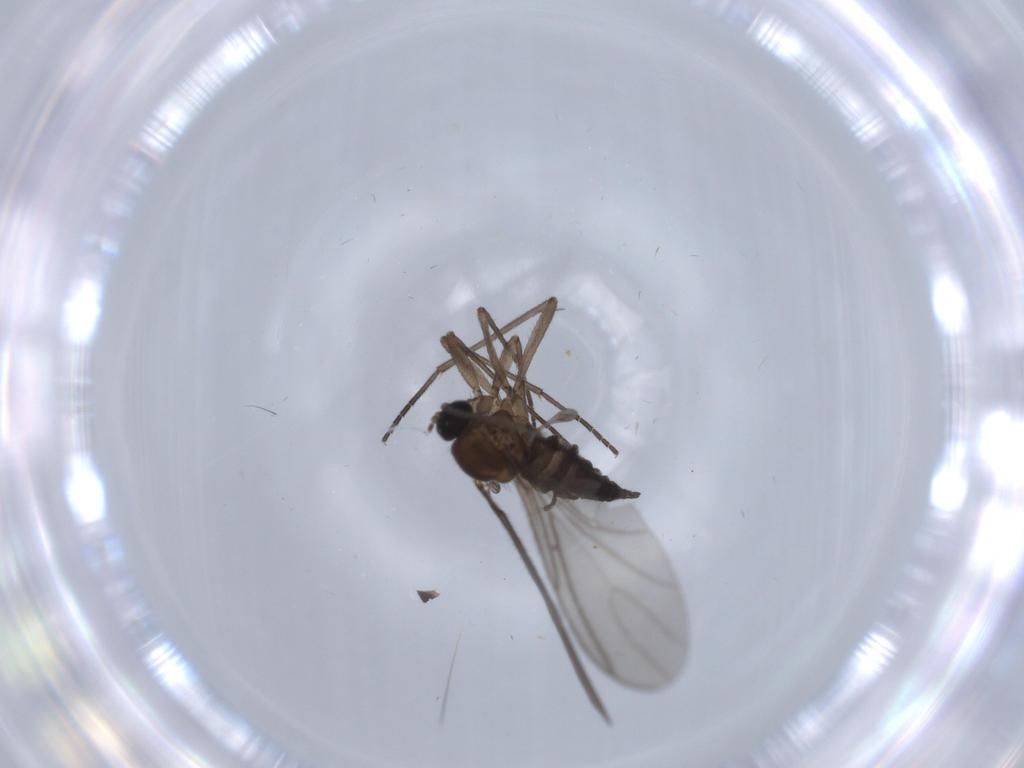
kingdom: Animalia
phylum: Arthropoda
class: Insecta
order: Diptera
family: Sciaridae
